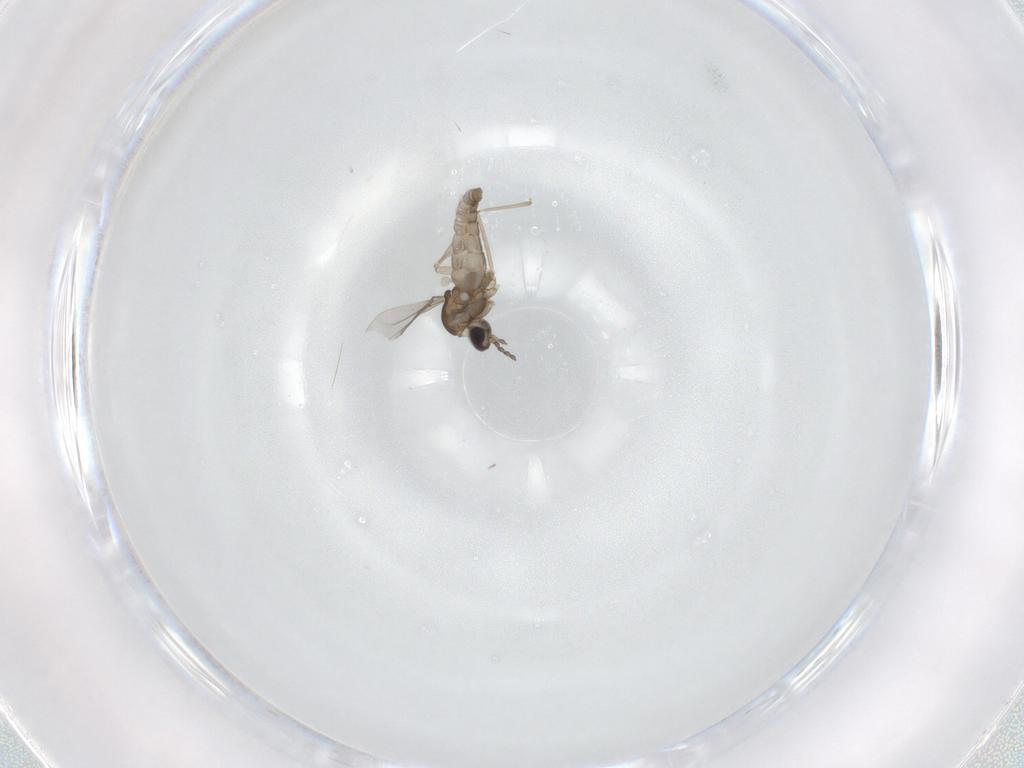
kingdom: Animalia
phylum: Arthropoda
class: Insecta
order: Diptera
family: Cecidomyiidae
